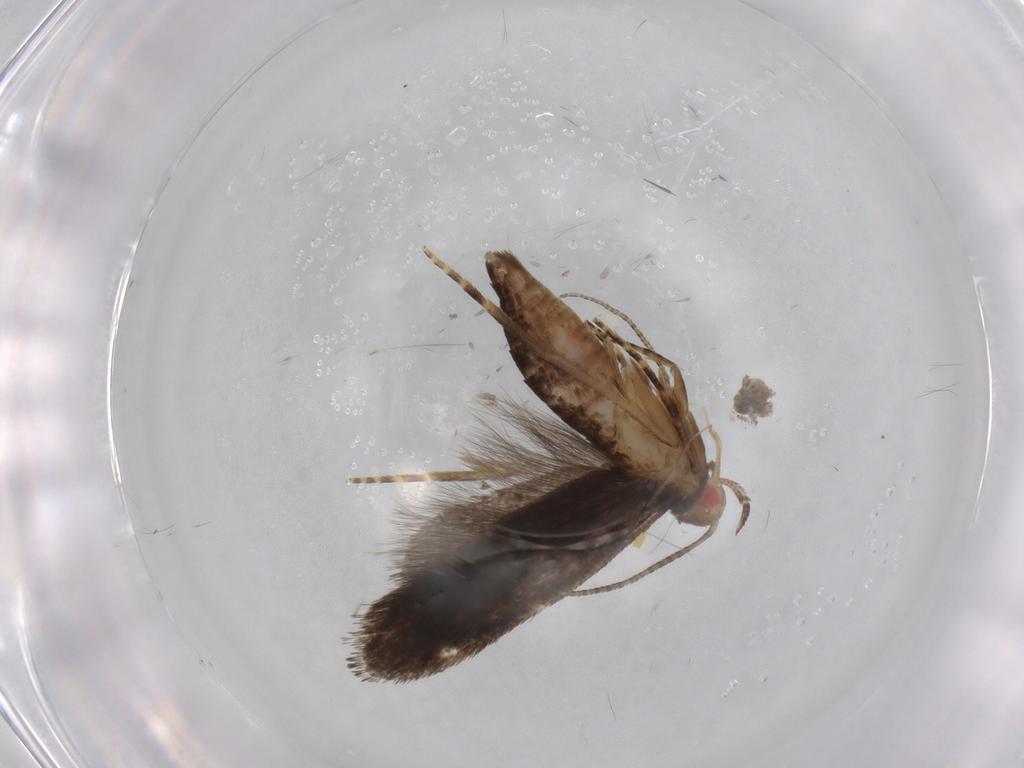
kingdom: Animalia
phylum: Arthropoda
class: Insecta
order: Lepidoptera
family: Gelechiidae
